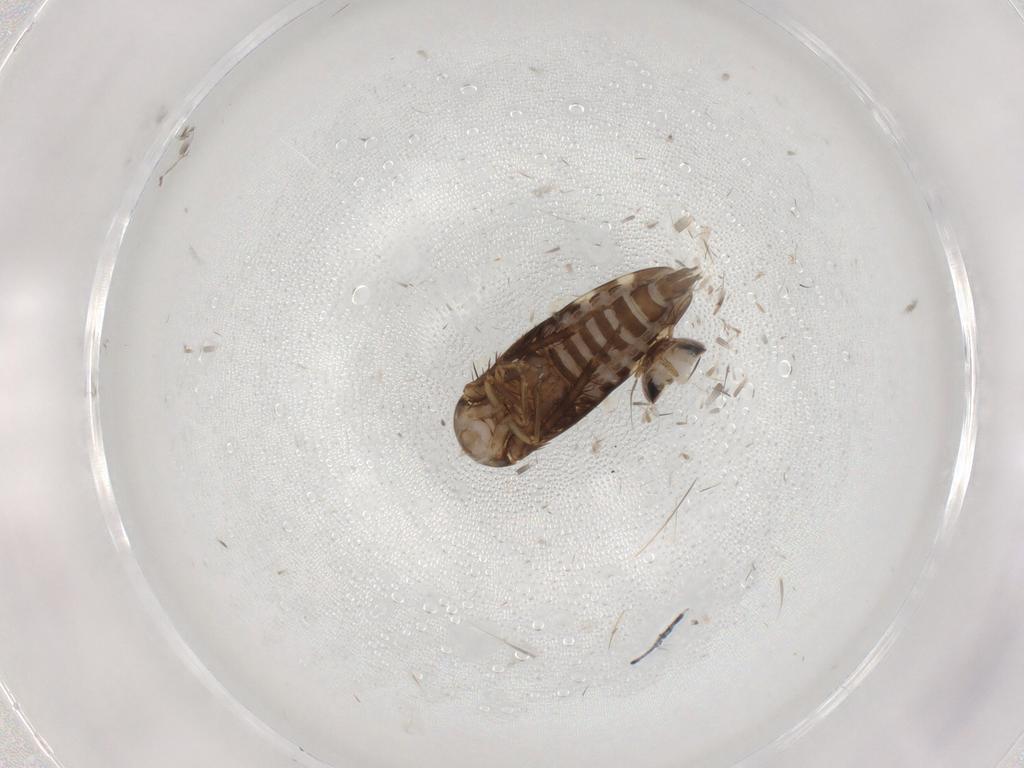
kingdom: Animalia
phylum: Arthropoda
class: Insecta
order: Hemiptera
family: Cicadellidae
